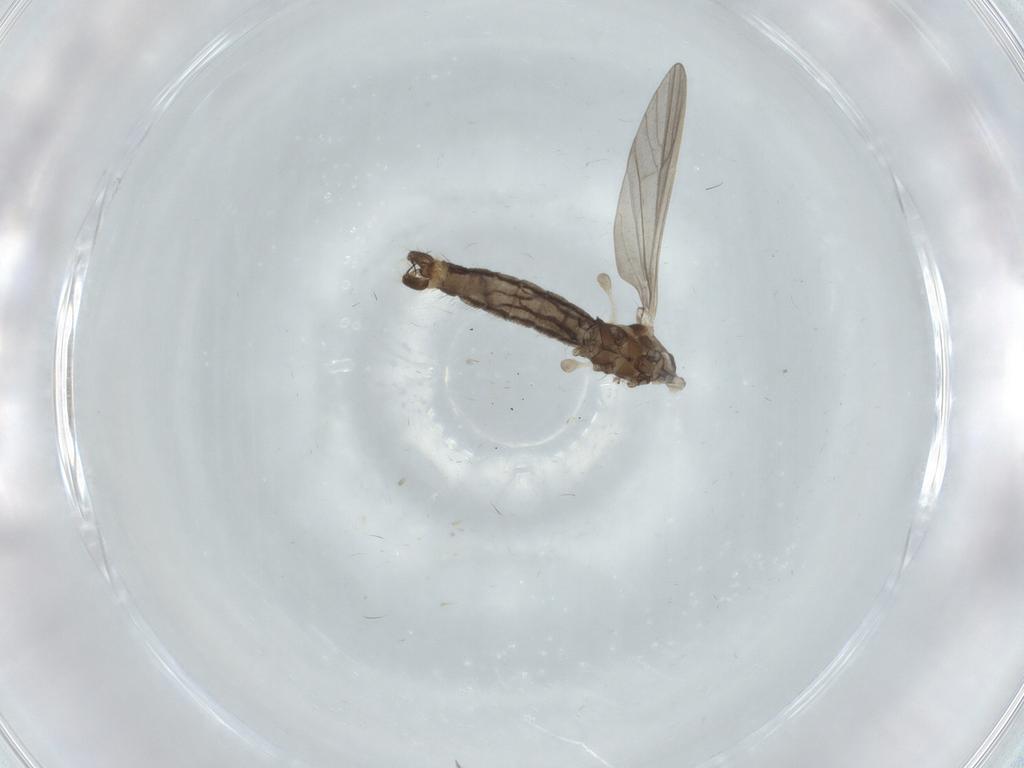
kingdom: Animalia
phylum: Arthropoda
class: Insecta
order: Diptera
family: Limoniidae
